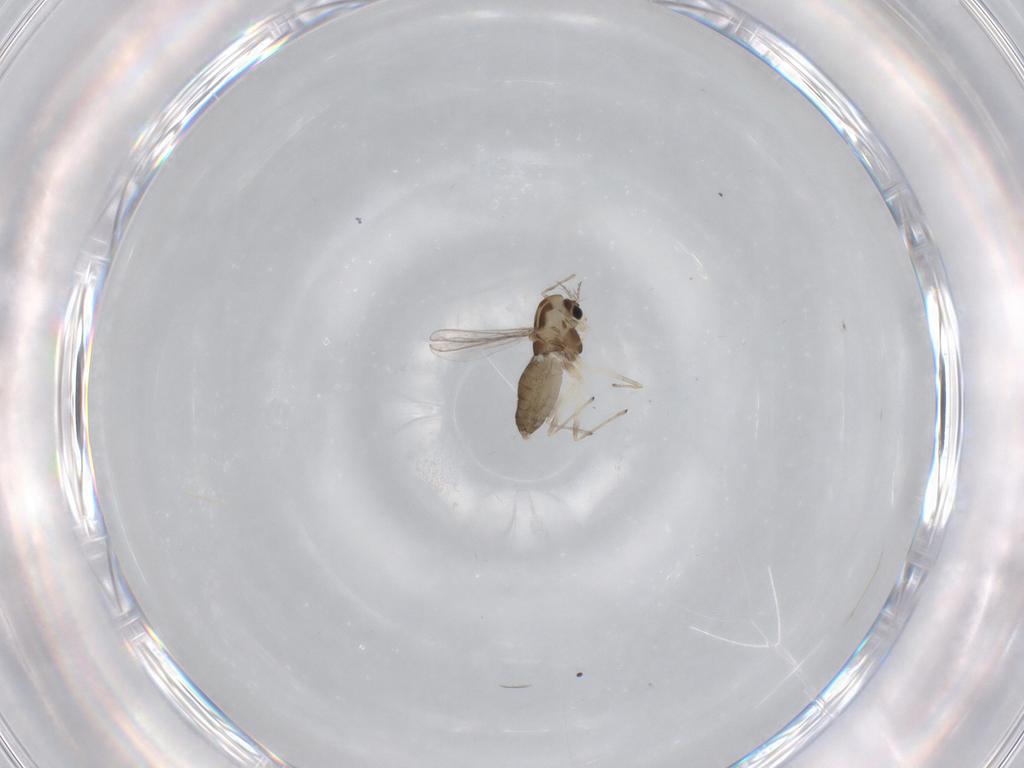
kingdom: Animalia
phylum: Arthropoda
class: Insecta
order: Diptera
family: Chironomidae
